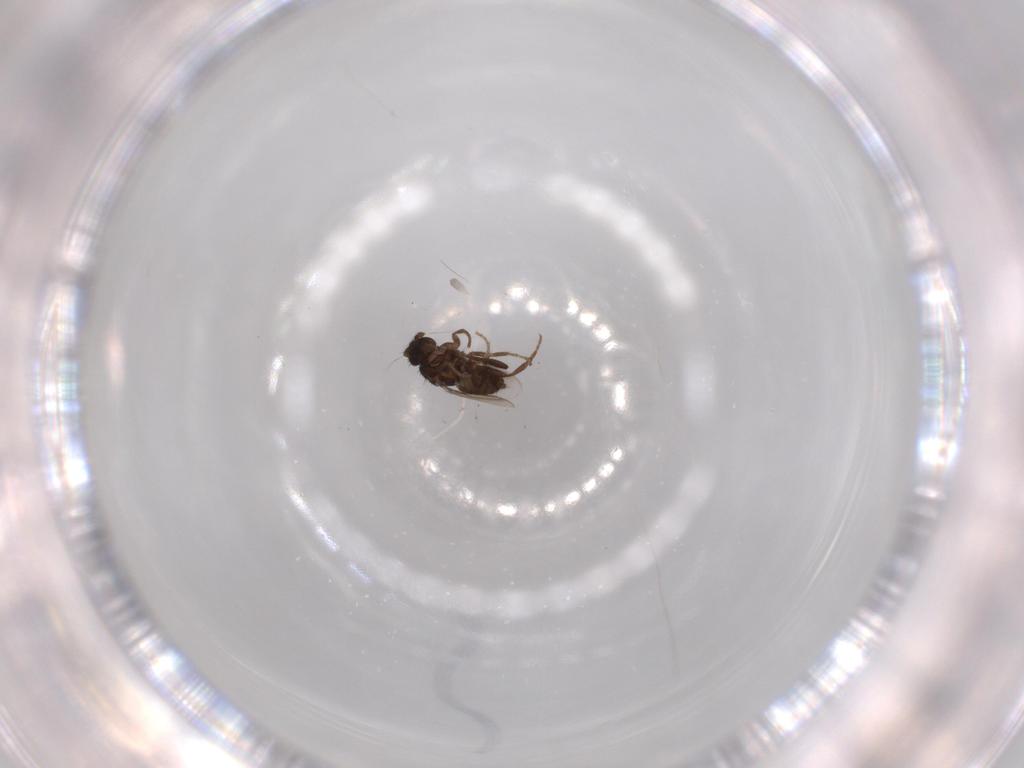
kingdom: Animalia
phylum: Arthropoda
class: Insecta
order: Diptera
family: Cecidomyiidae
